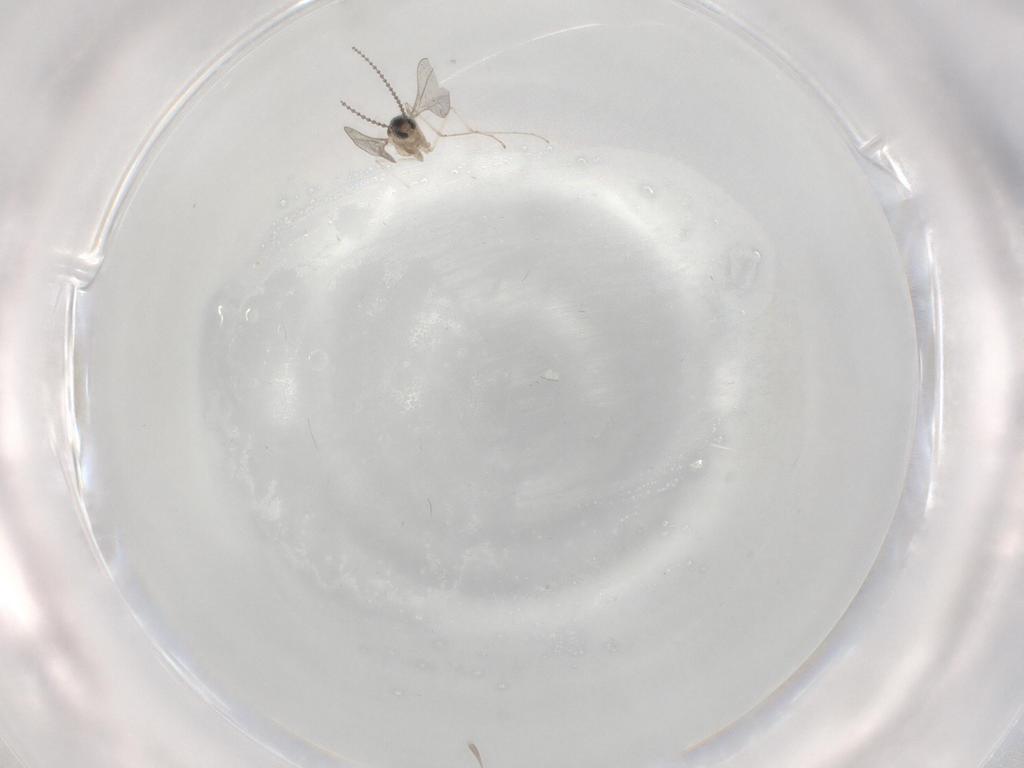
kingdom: Animalia
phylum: Arthropoda
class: Insecta
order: Diptera
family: Cecidomyiidae
